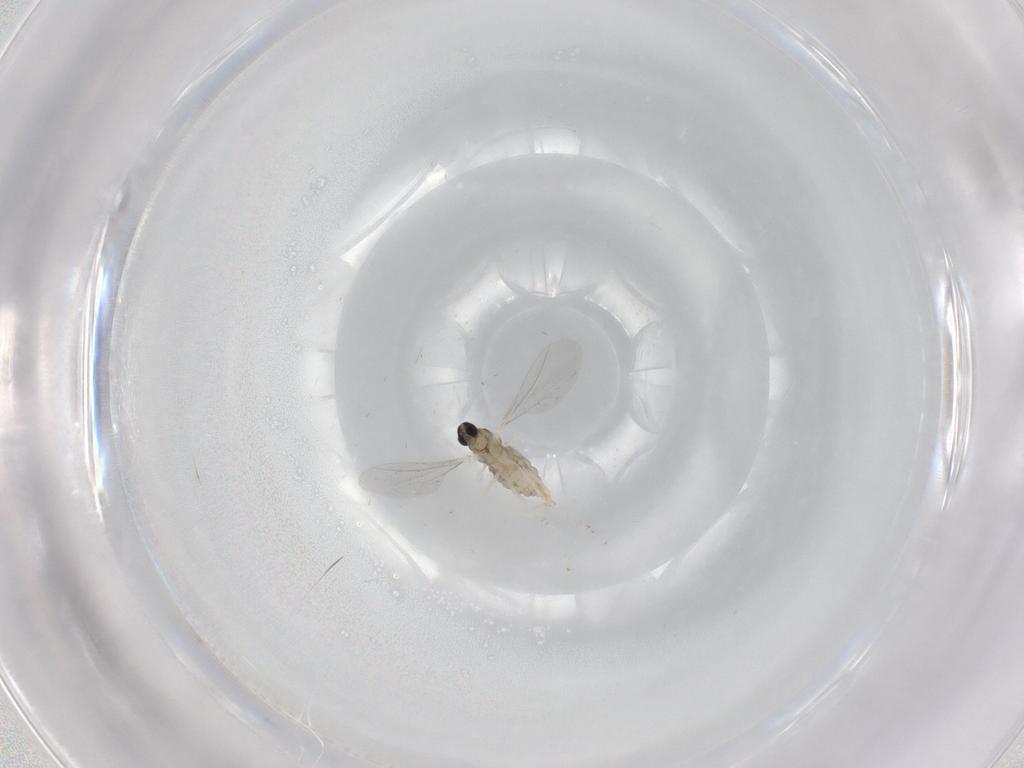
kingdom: Animalia
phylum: Arthropoda
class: Insecta
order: Diptera
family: Cecidomyiidae
